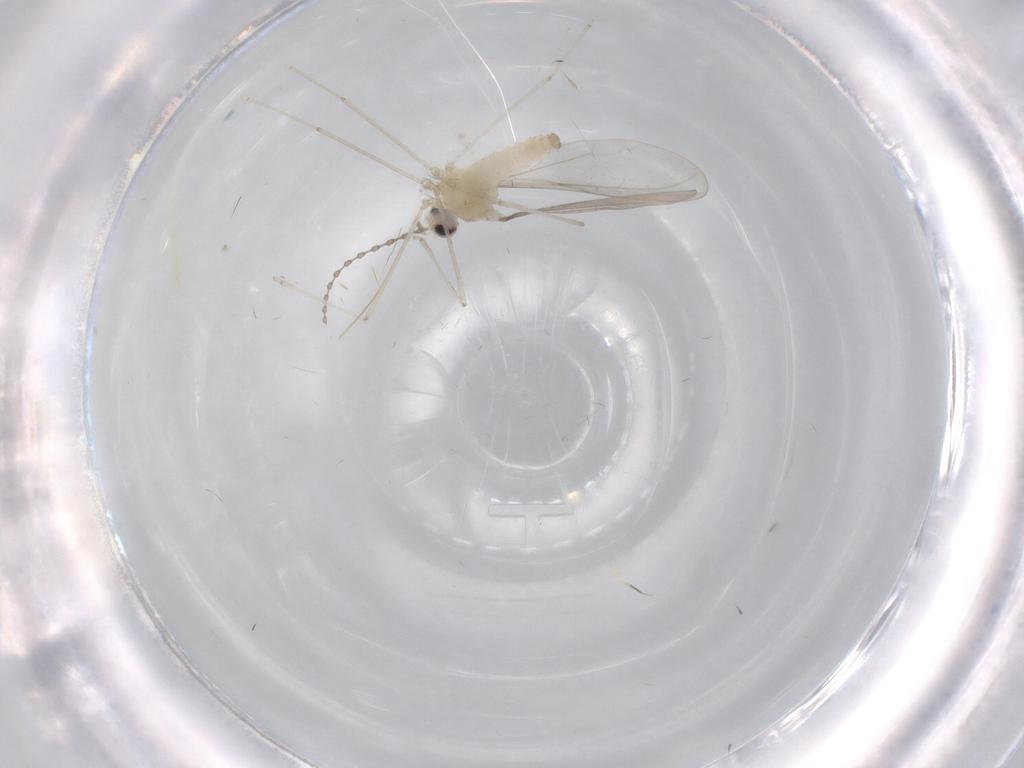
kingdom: Animalia
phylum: Arthropoda
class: Insecta
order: Diptera
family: Cecidomyiidae
